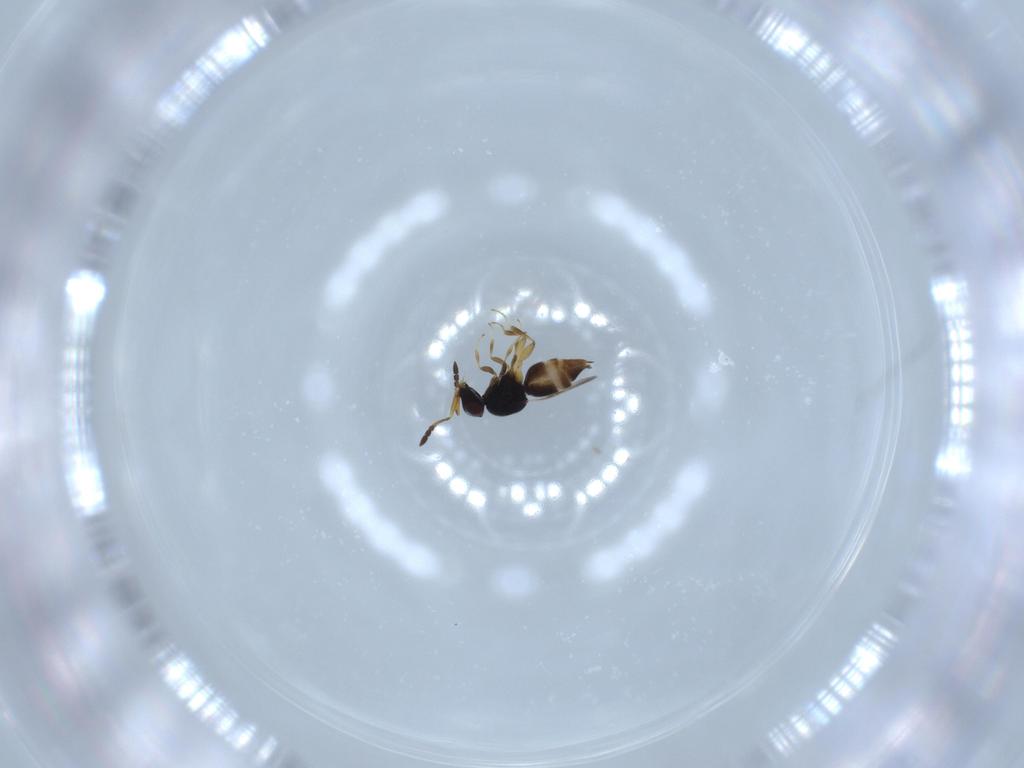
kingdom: Animalia
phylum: Arthropoda
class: Insecta
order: Hymenoptera
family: Ceraphronidae
